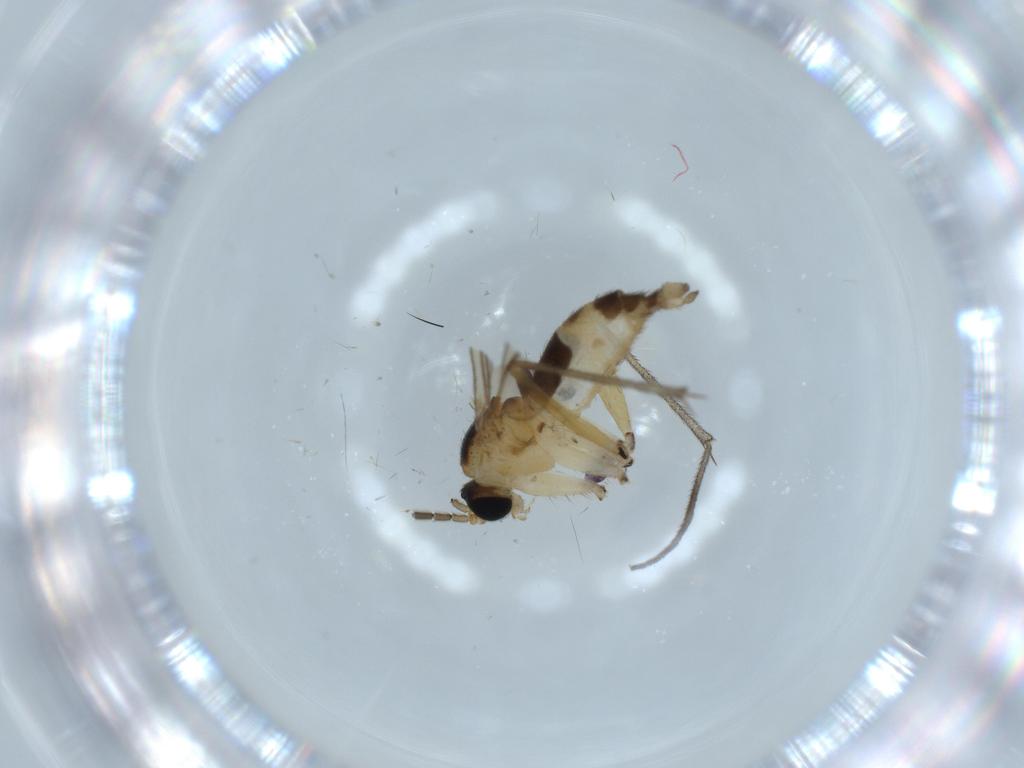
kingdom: Animalia
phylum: Arthropoda
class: Insecta
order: Diptera
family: Sciaridae
